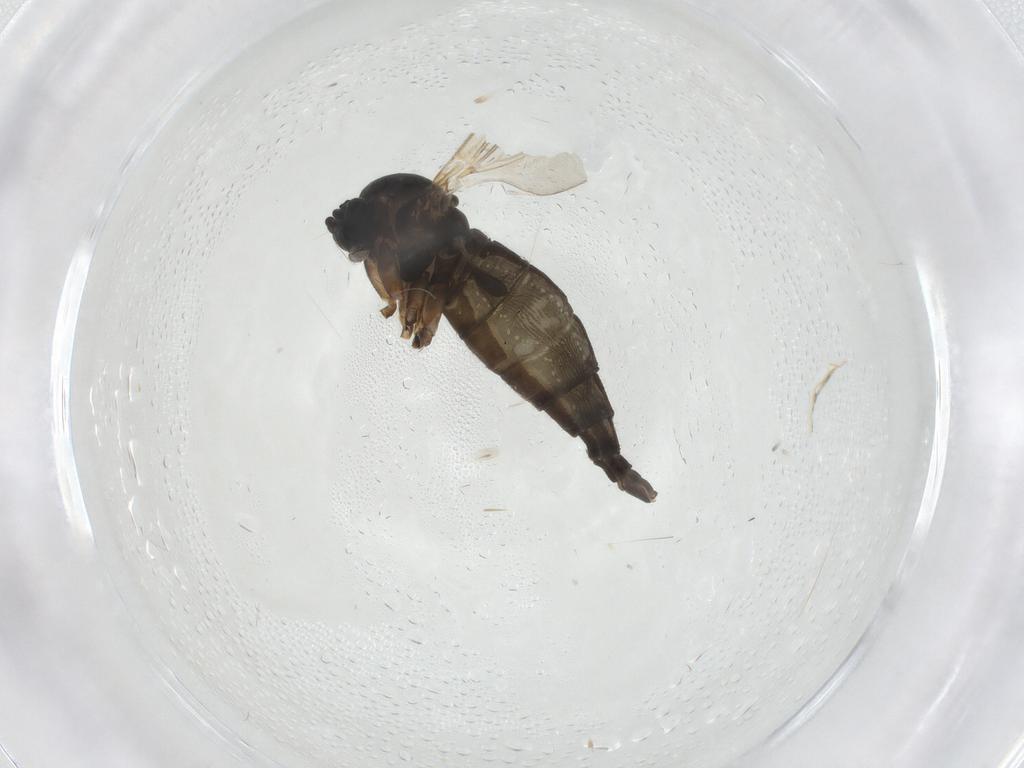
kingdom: Animalia
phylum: Arthropoda
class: Insecta
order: Diptera
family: Sciaridae
